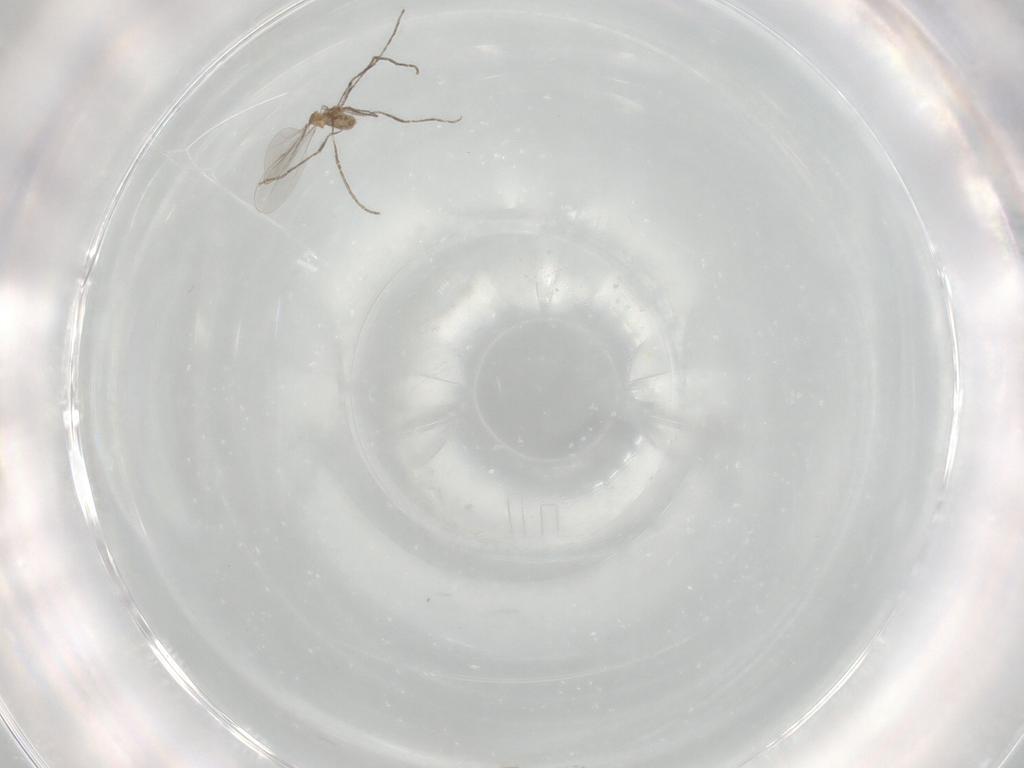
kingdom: Animalia
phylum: Arthropoda
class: Insecta
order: Diptera
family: Cecidomyiidae
